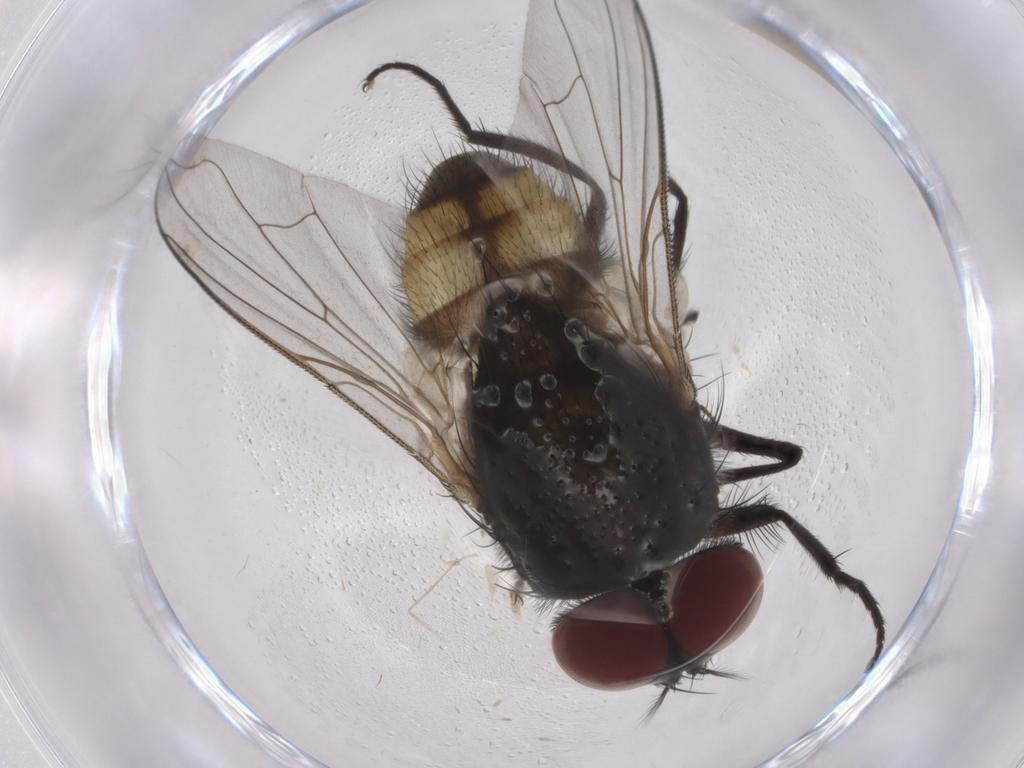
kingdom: Animalia
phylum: Arthropoda
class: Insecta
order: Diptera
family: Muscidae
